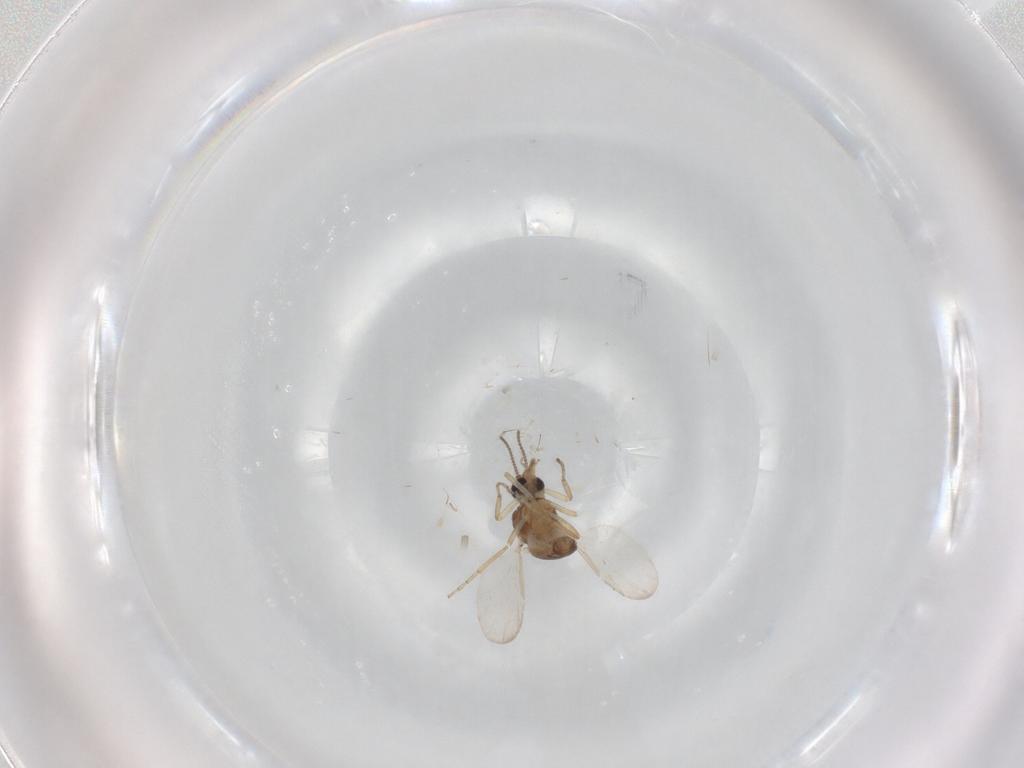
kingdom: Animalia
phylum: Arthropoda
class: Insecta
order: Diptera
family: Ceratopogonidae
